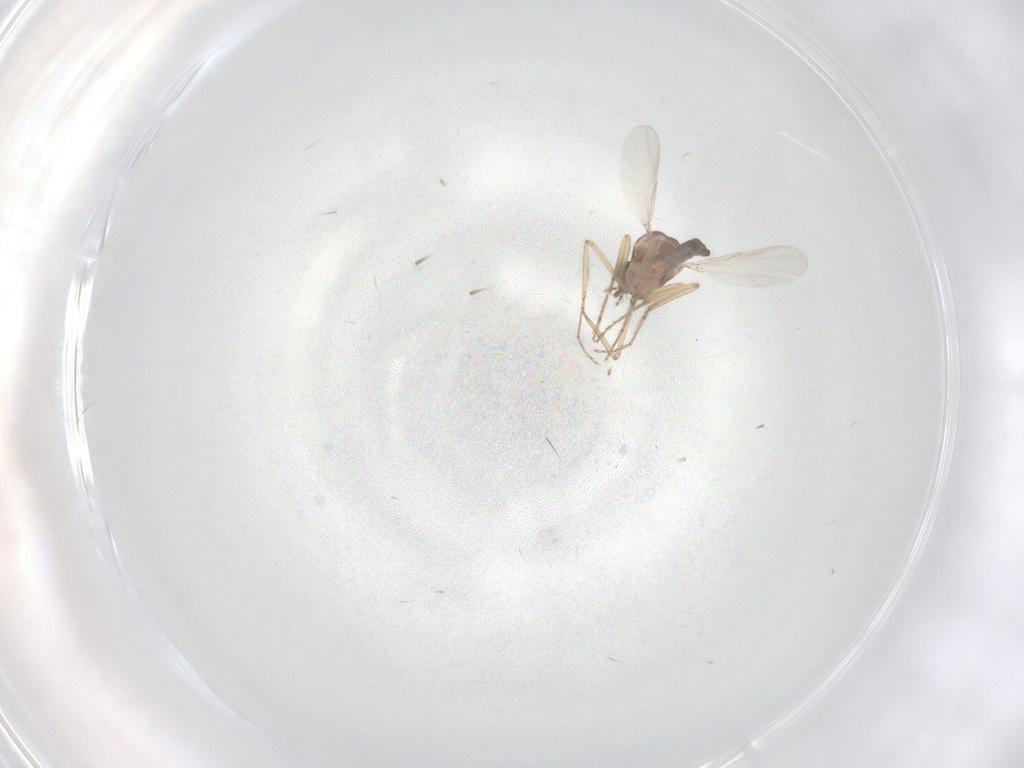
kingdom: Animalia
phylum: Arthropoda
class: Insecta
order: Diptera
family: Ceratopogonidae
